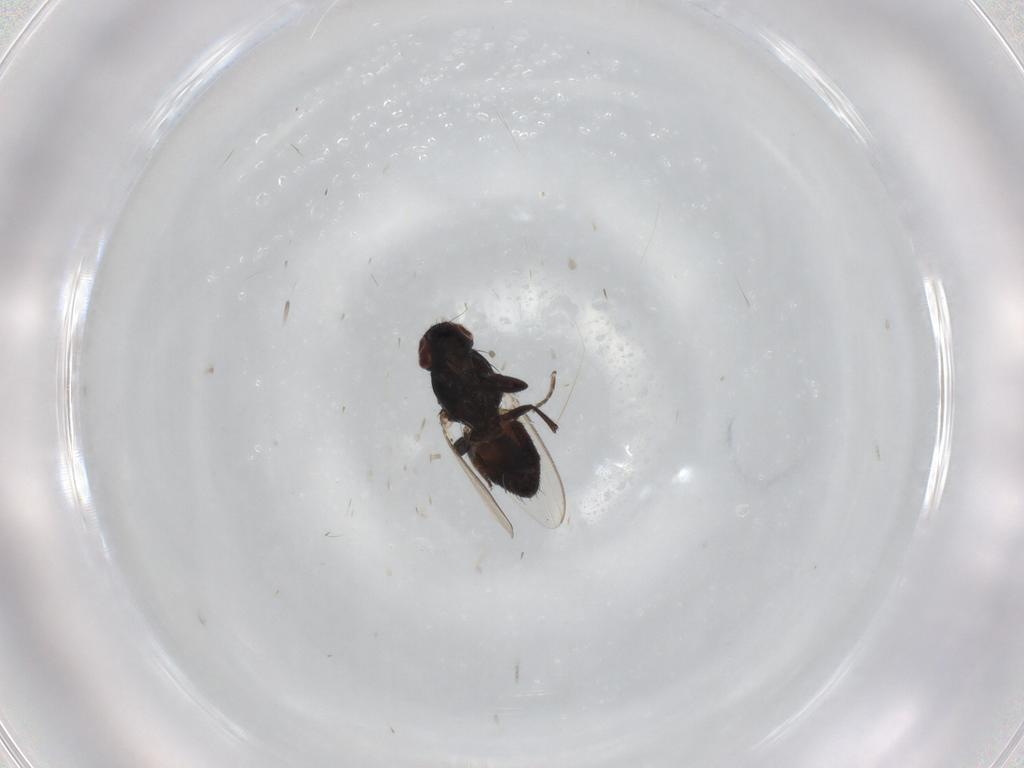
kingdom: Animalia
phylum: Arthropoda
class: Insecta
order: Diptera
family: Milichiidae
